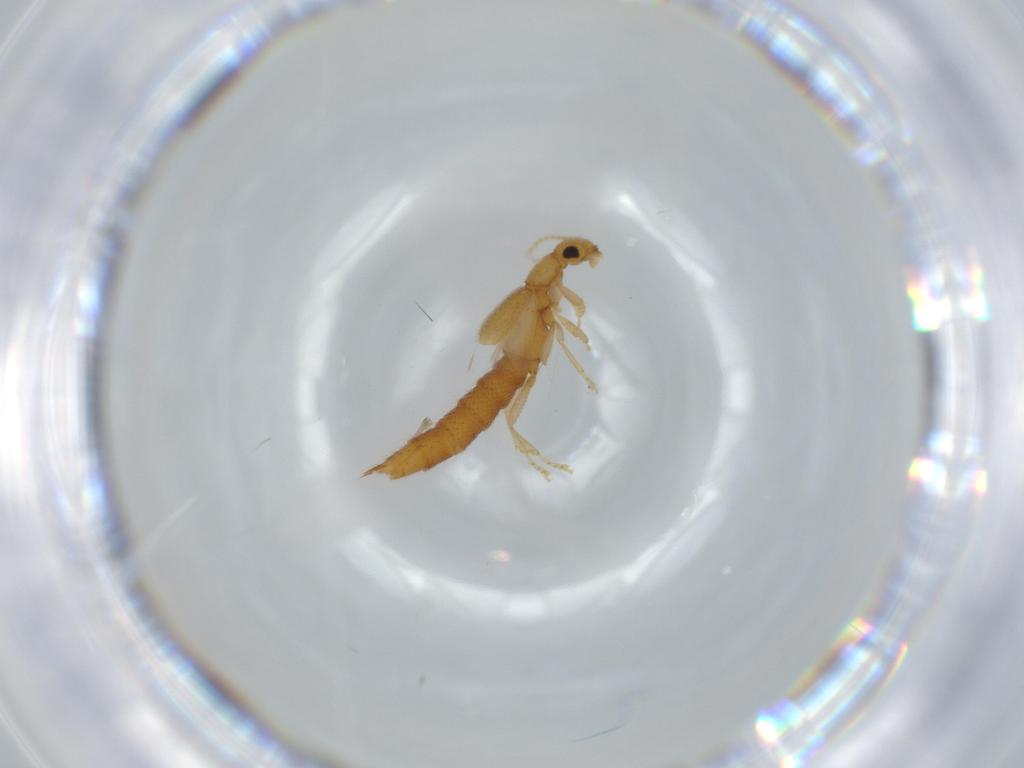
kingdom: Animalia
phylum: Arthropoda
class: Insecta
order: Coleoptera
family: Staphylinidae
